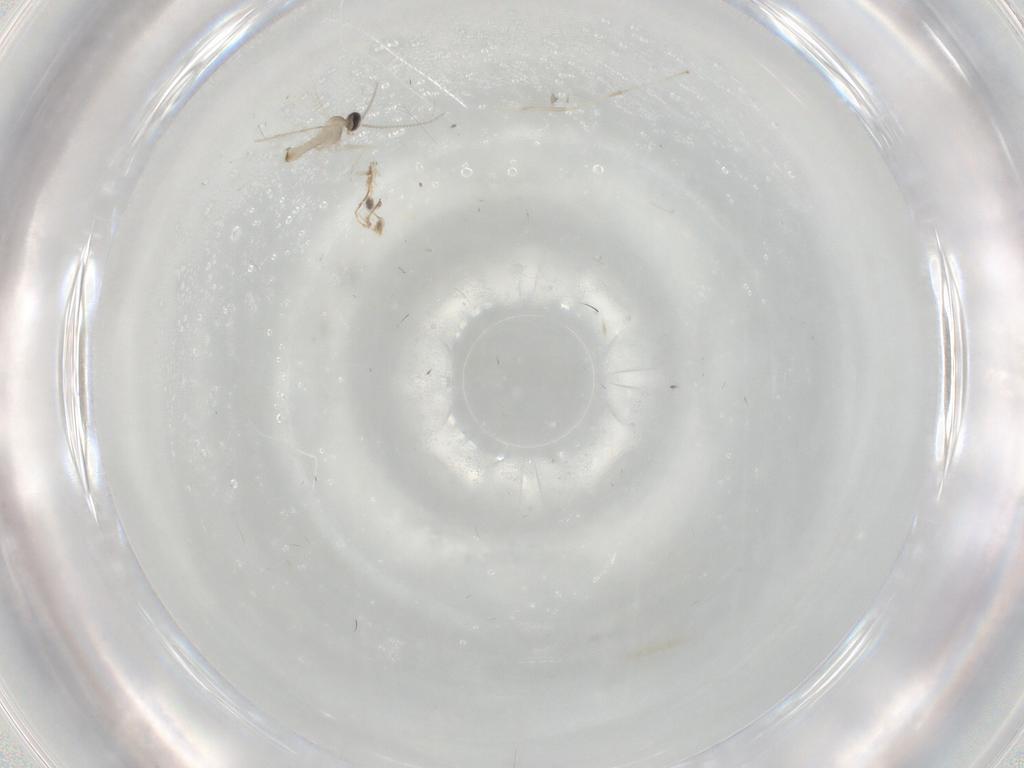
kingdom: Animalia
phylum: Arthropoda
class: Insecta
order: Diptera
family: Cecidomyiidae
